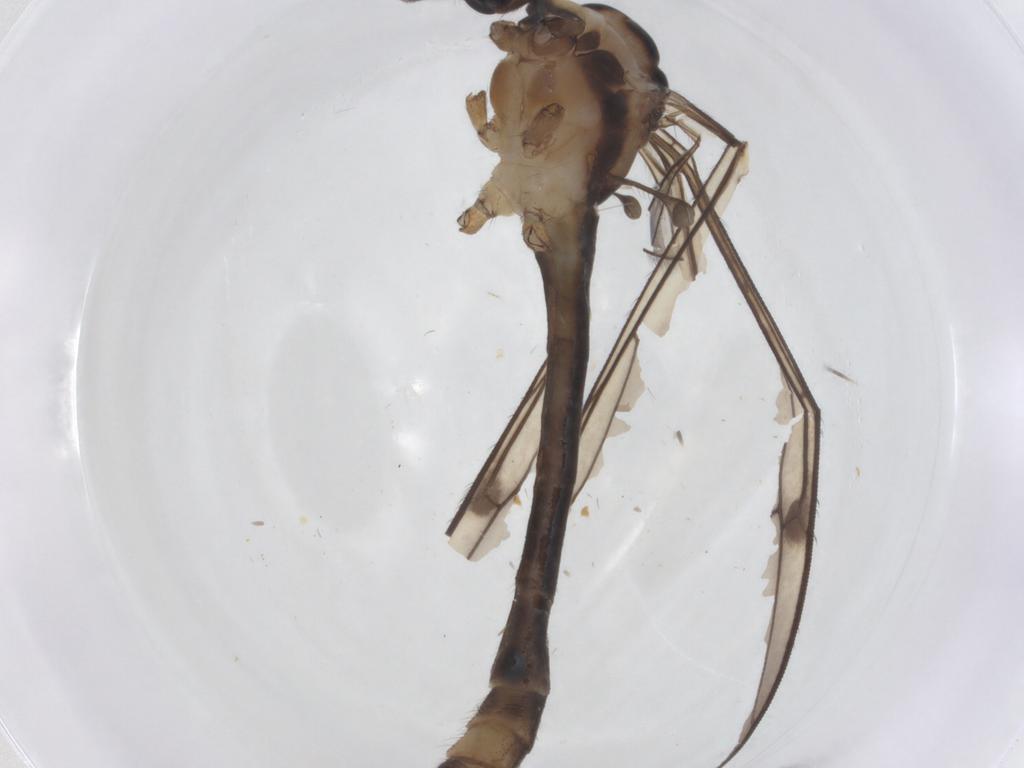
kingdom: Animalia
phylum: Arthropoda
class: Insecta
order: Diptera
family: Limoniidae
